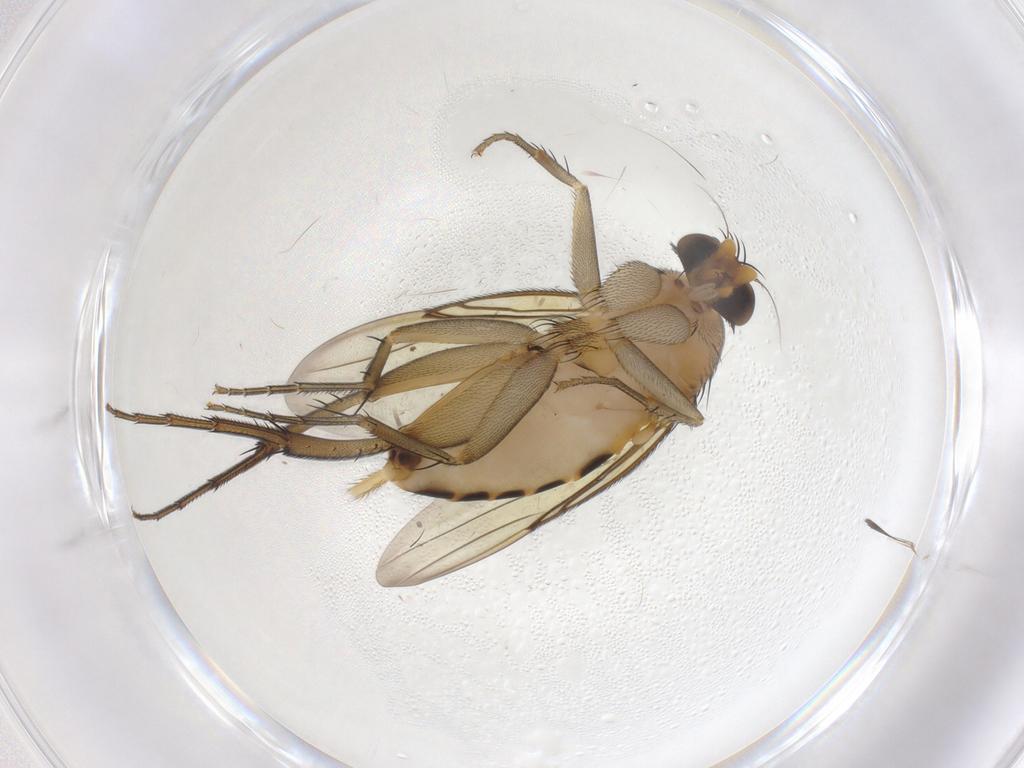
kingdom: Animalia
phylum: Arthropoda
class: Insecta
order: Diptera
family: Phoridae
